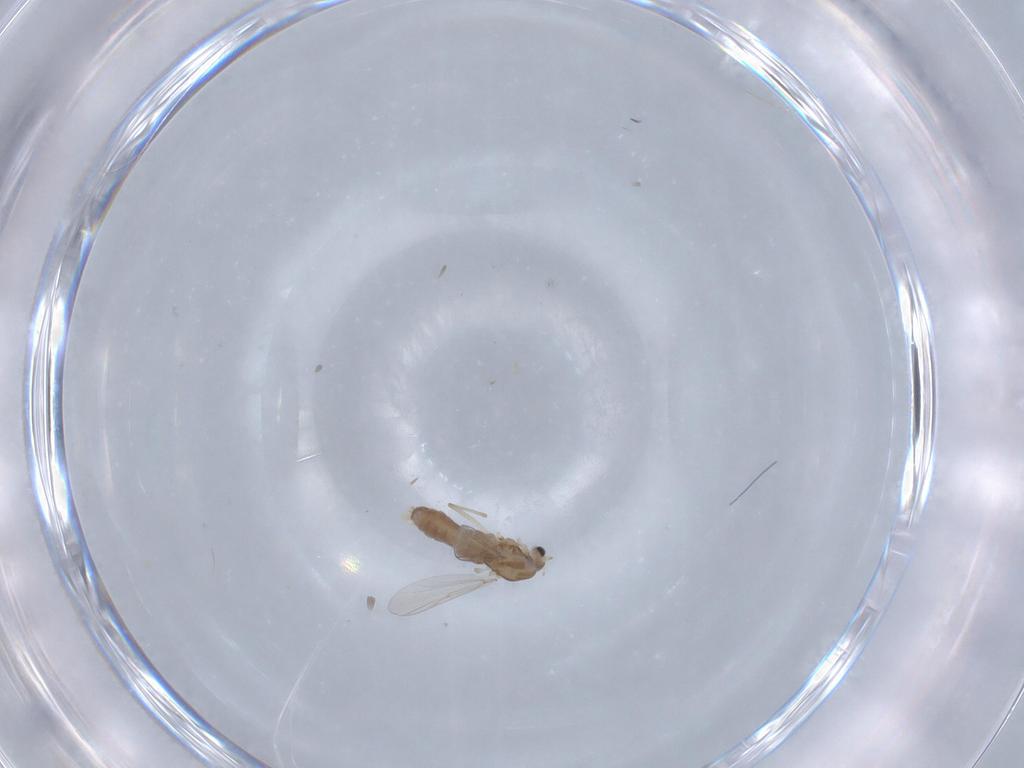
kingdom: Animalia
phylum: Arthropoda
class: Insecta
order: Diptera
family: Chironomidae
